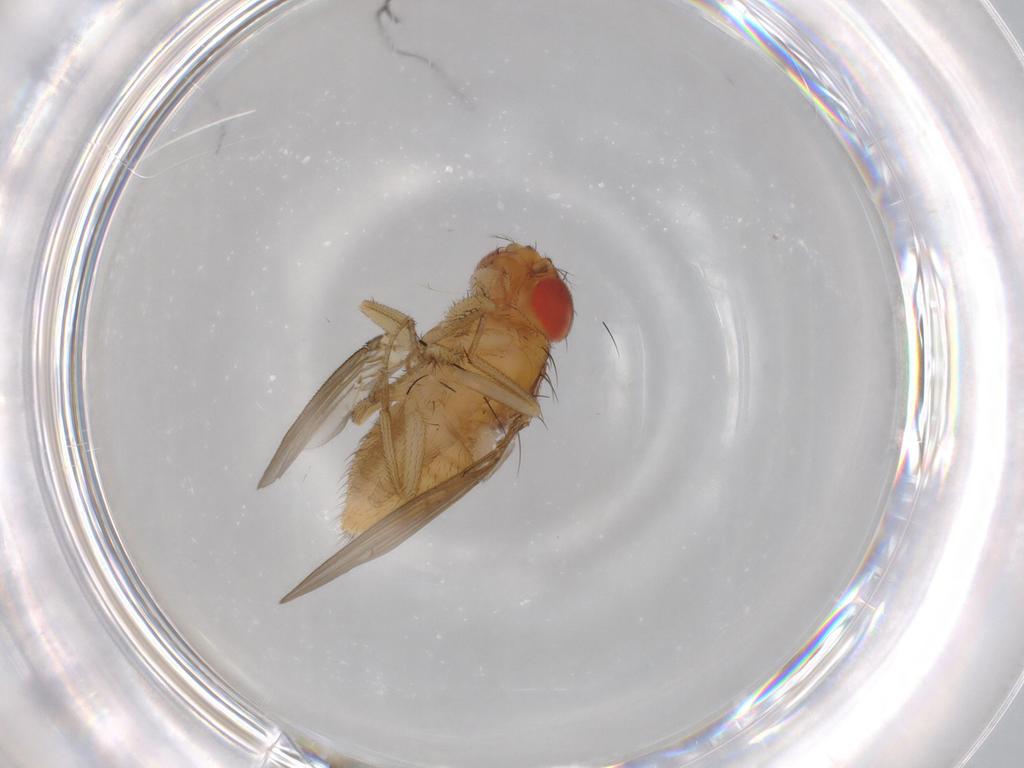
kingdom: Animalia
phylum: Arthropoda
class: Insecta
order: Diptera
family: Drosophilidae
